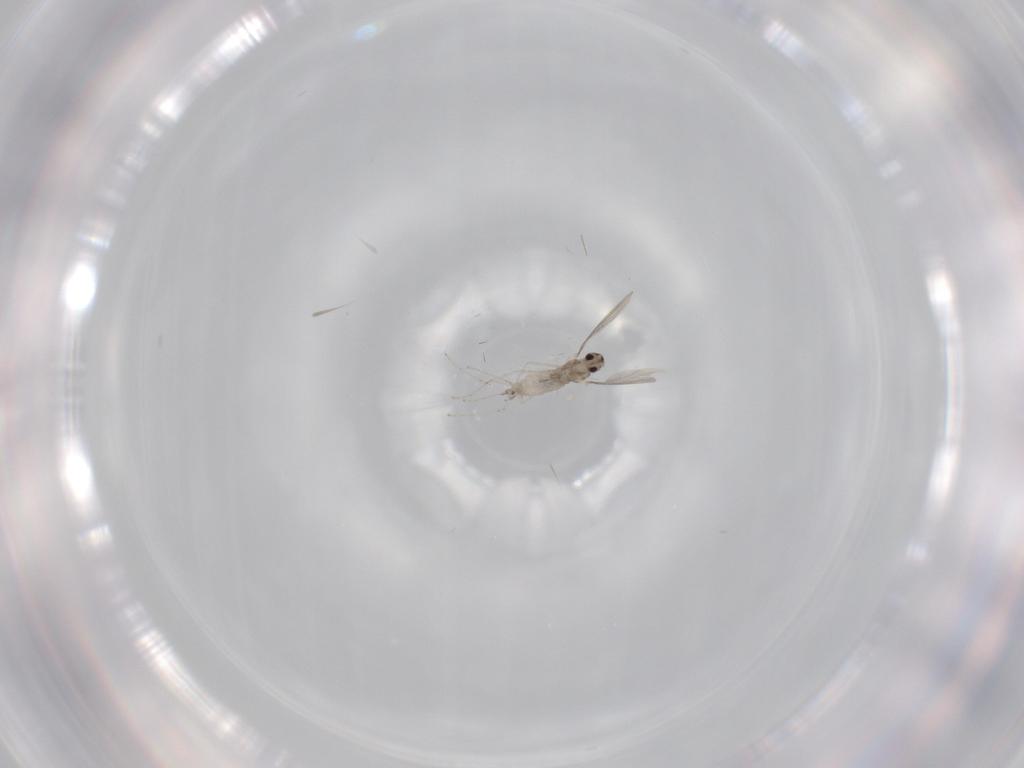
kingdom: Animalia
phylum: Arthropoda
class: Insecta
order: Diptera
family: Cecidomyiidae
